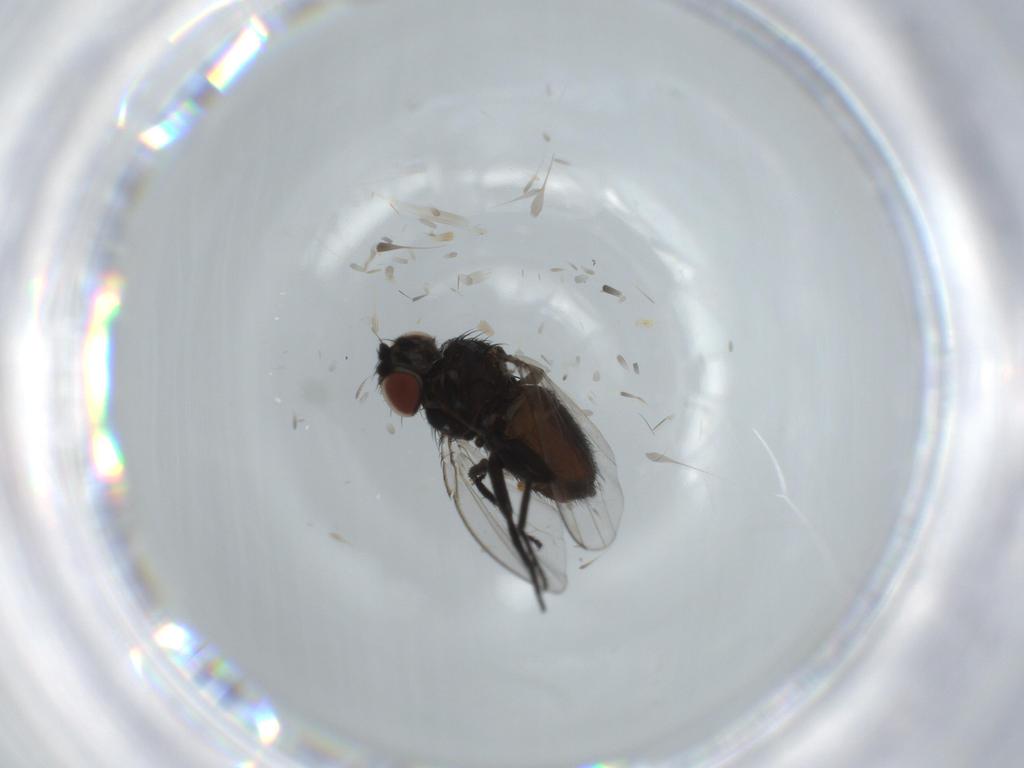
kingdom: Animalia
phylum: Arthropoda
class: Insecta
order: Diptera
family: Milichiidae
